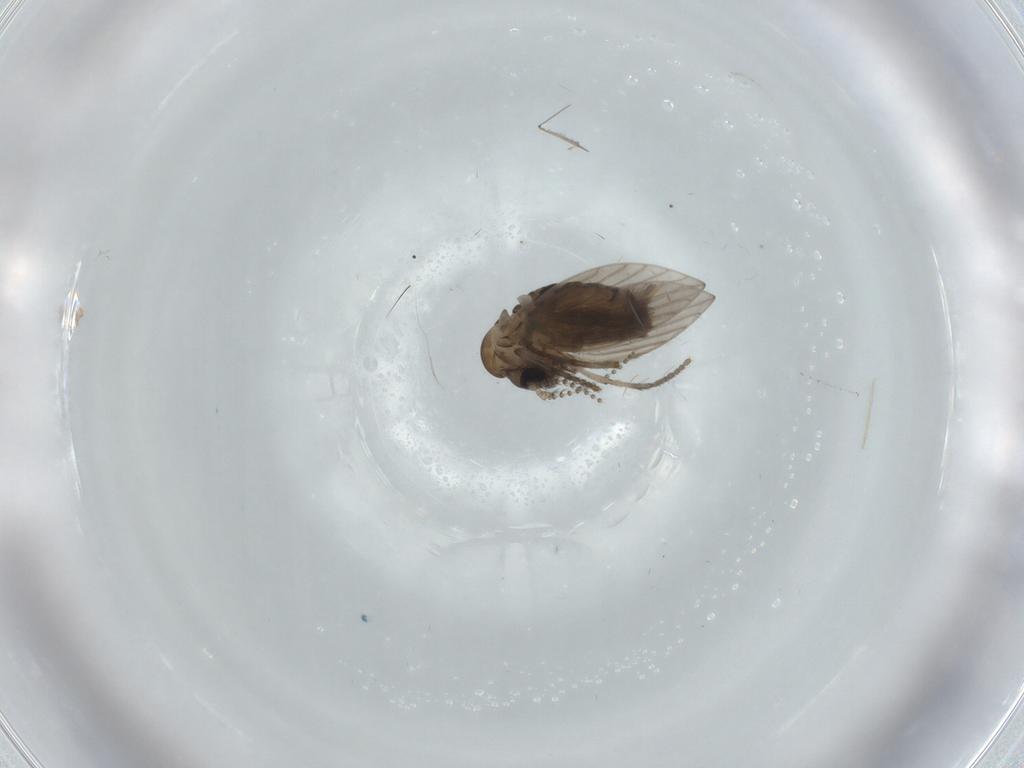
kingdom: Animalia
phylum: Arthropoda
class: Insecta
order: Diptera
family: Psychodidae
